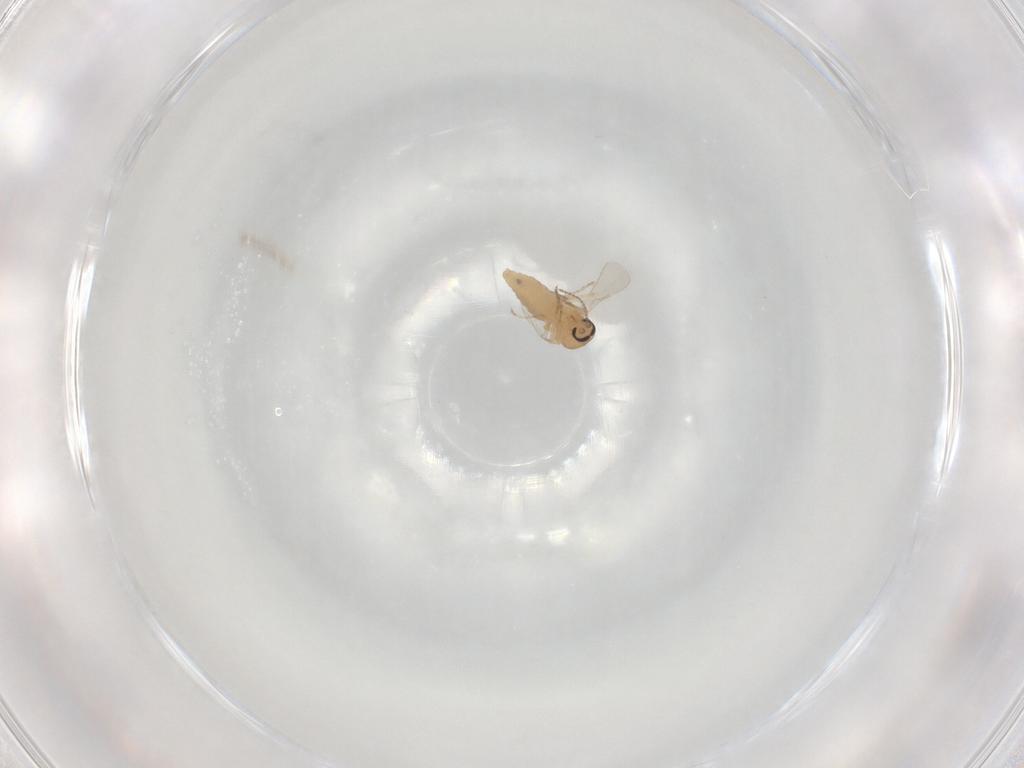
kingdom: Animalia
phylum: Arthropoda
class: Insecta
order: Diptera
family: Ceratopogonidae
